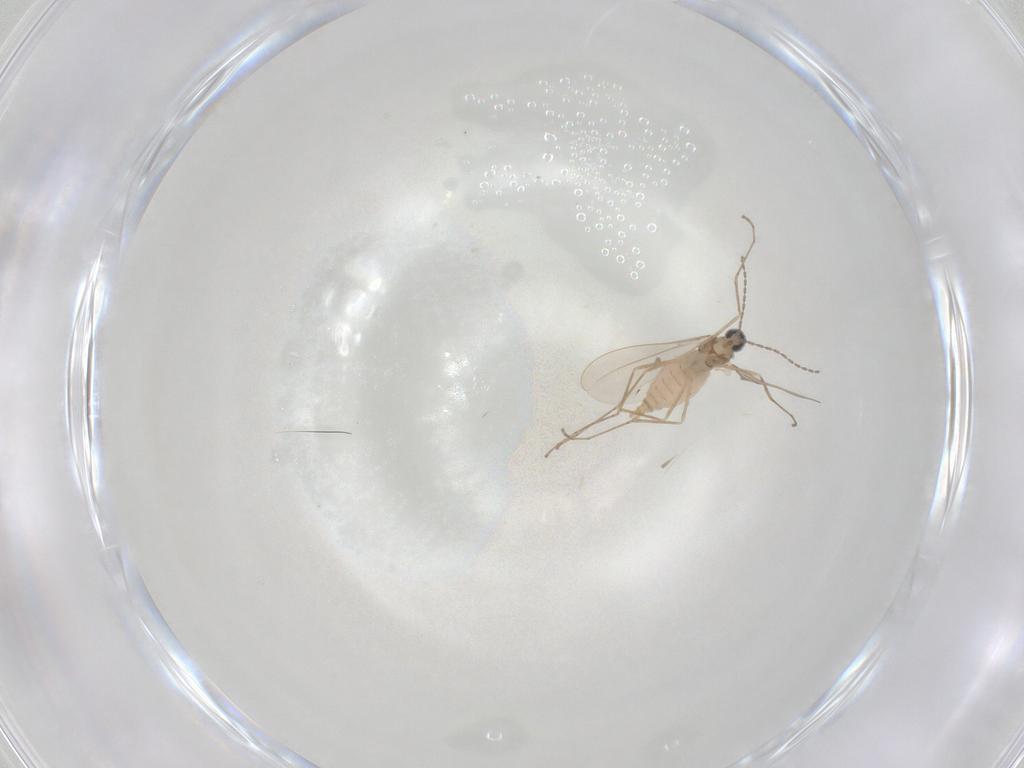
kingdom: Animalia
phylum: Arthropoda
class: Insecta
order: Diptera
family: Cecidomyiidae
